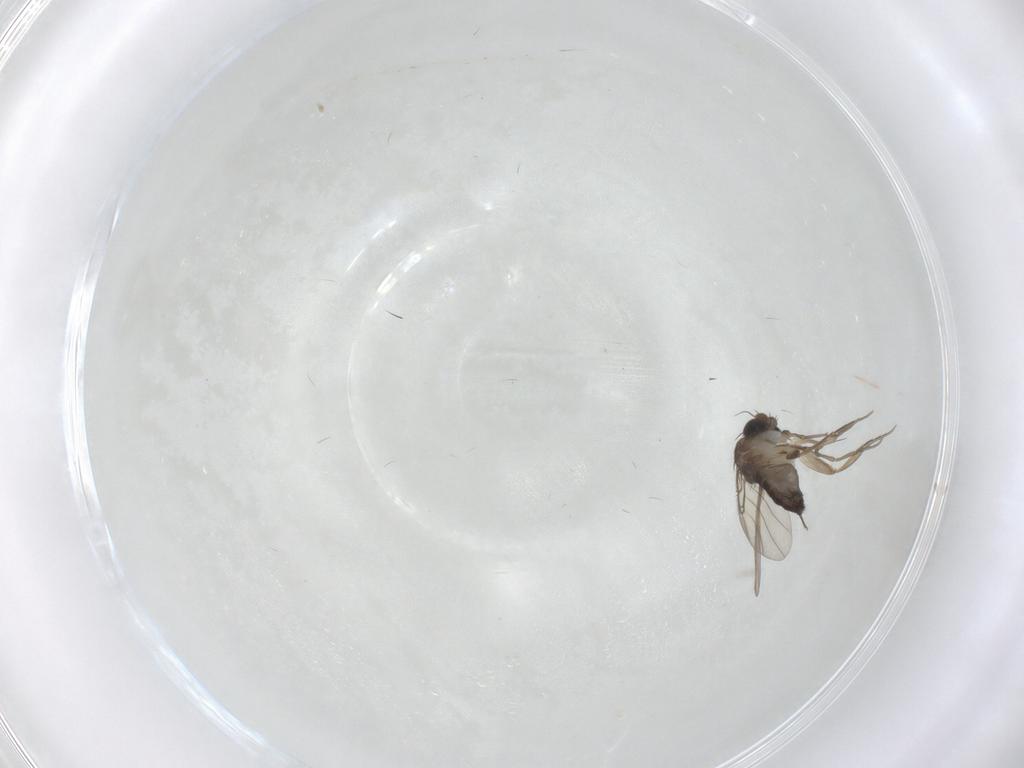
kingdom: Animalia
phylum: Arthropoda
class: Insecta
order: Diptera
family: Phoridae
